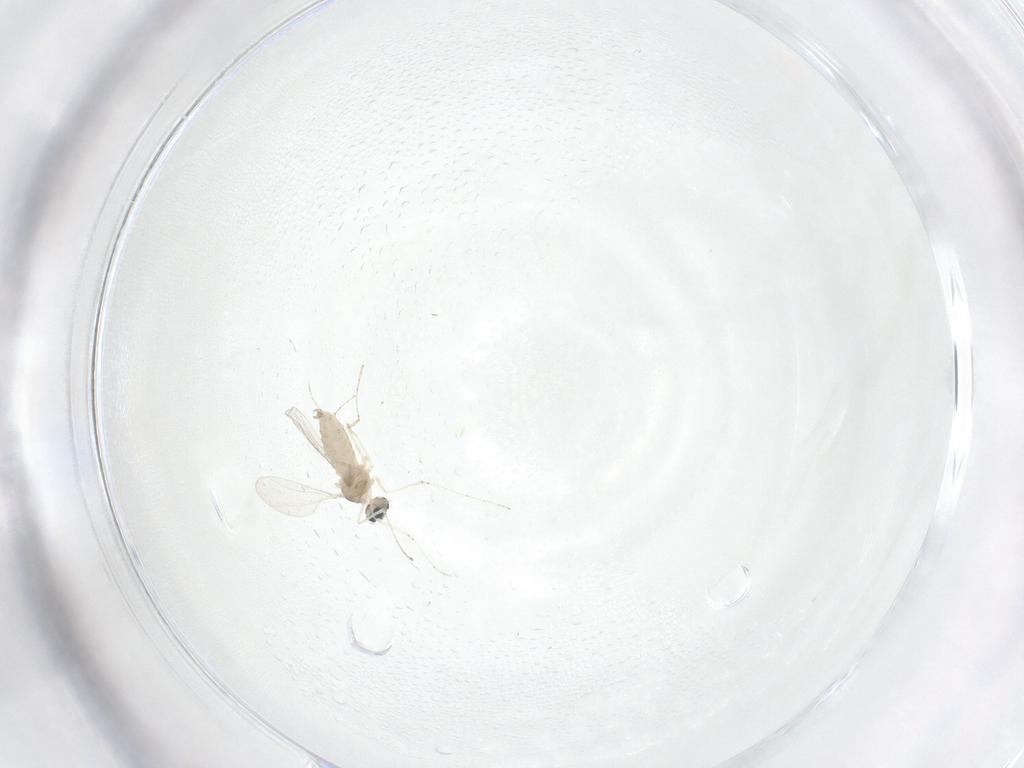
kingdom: Animalia
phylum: Arthropoda
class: Insecta
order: Diptera
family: Cecidomyiidae
